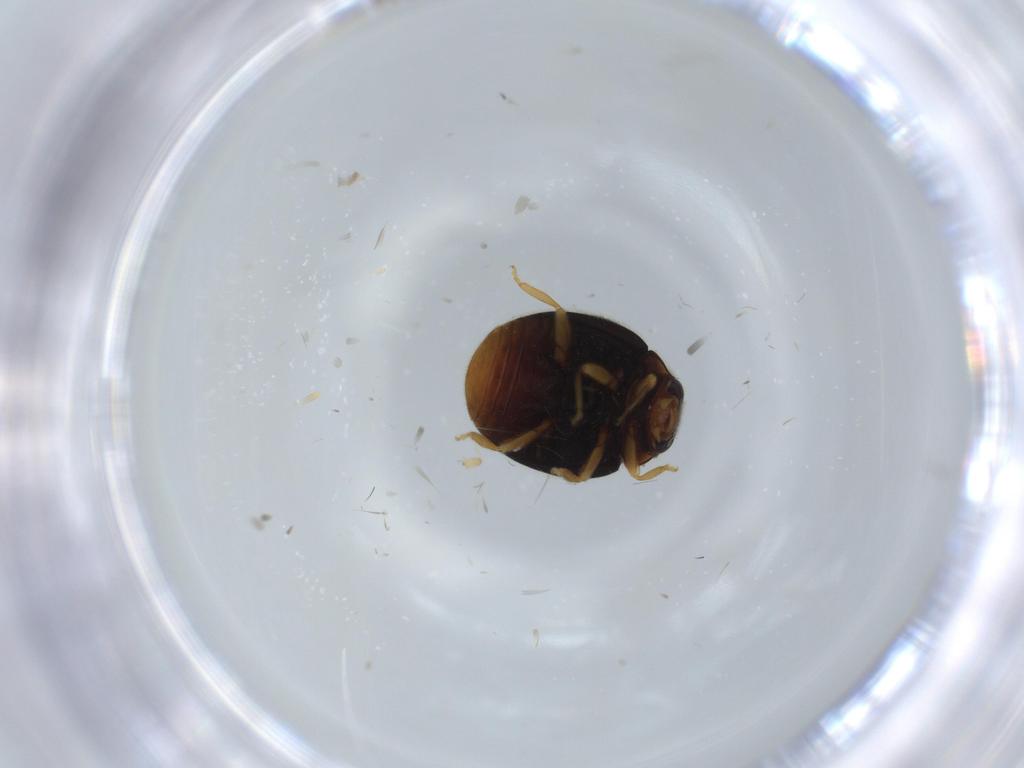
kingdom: Animalia
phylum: Arthropoda
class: Insecta
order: Coleoptera
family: Coccinellidae
